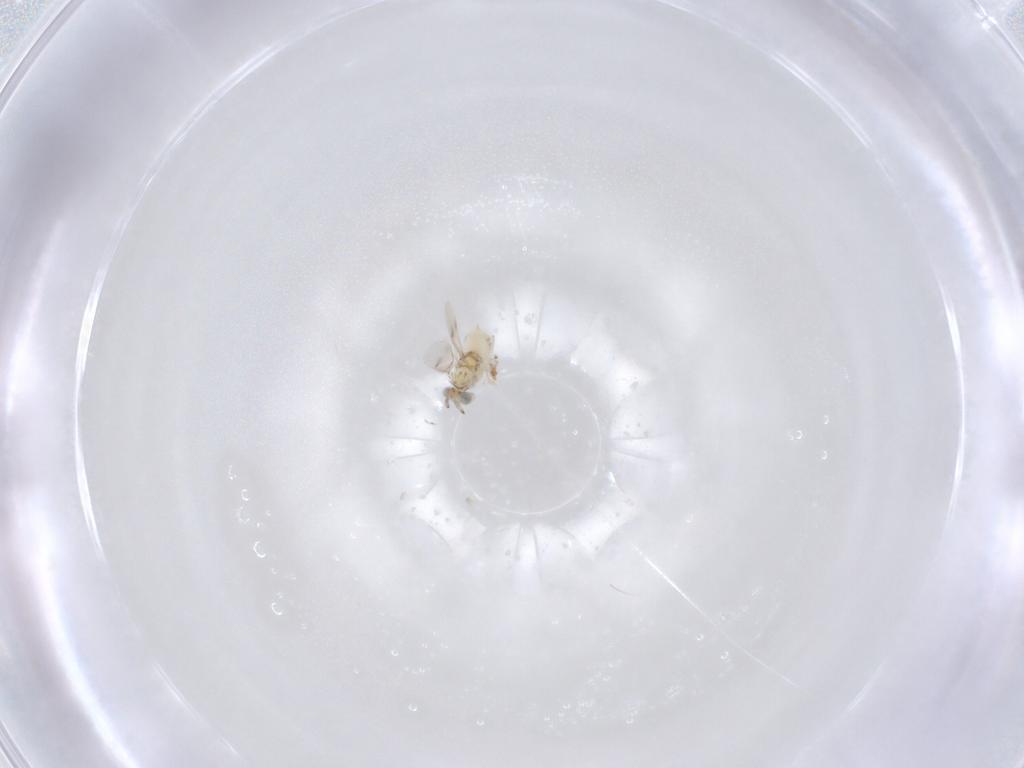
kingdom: Animalia
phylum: Arthropoda
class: Insecta
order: Hymenoptera
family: Aphelinidae
